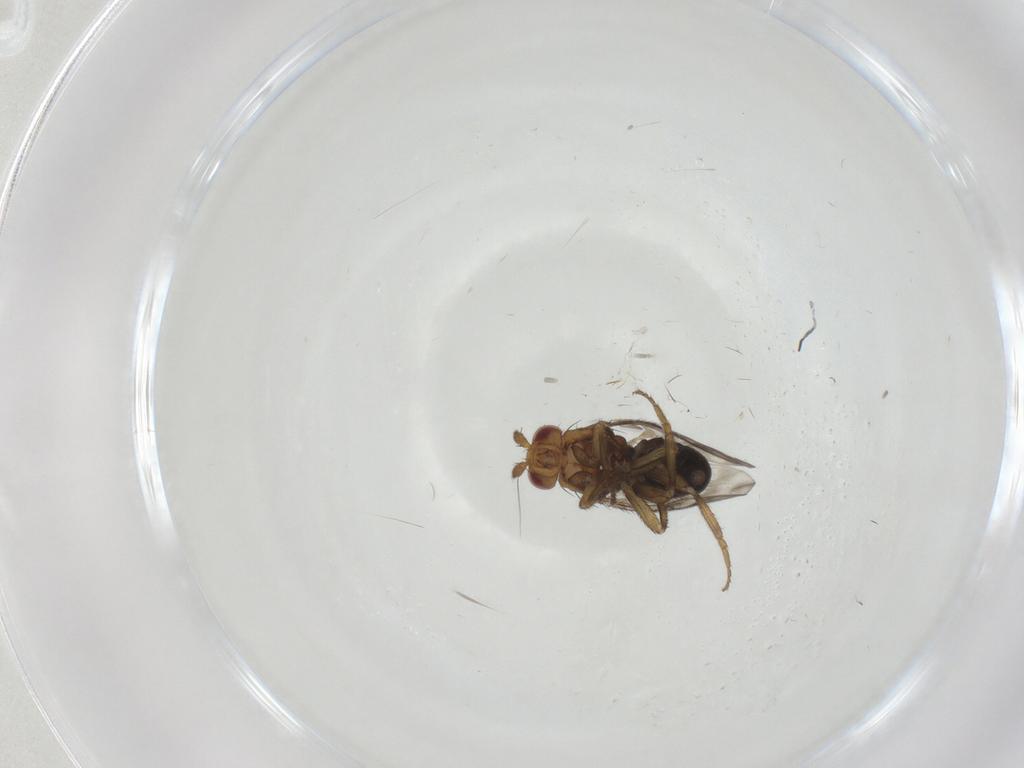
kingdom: Animalia
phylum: Arthropoda
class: Insecta
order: Diptera
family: Sphaeroceridae
